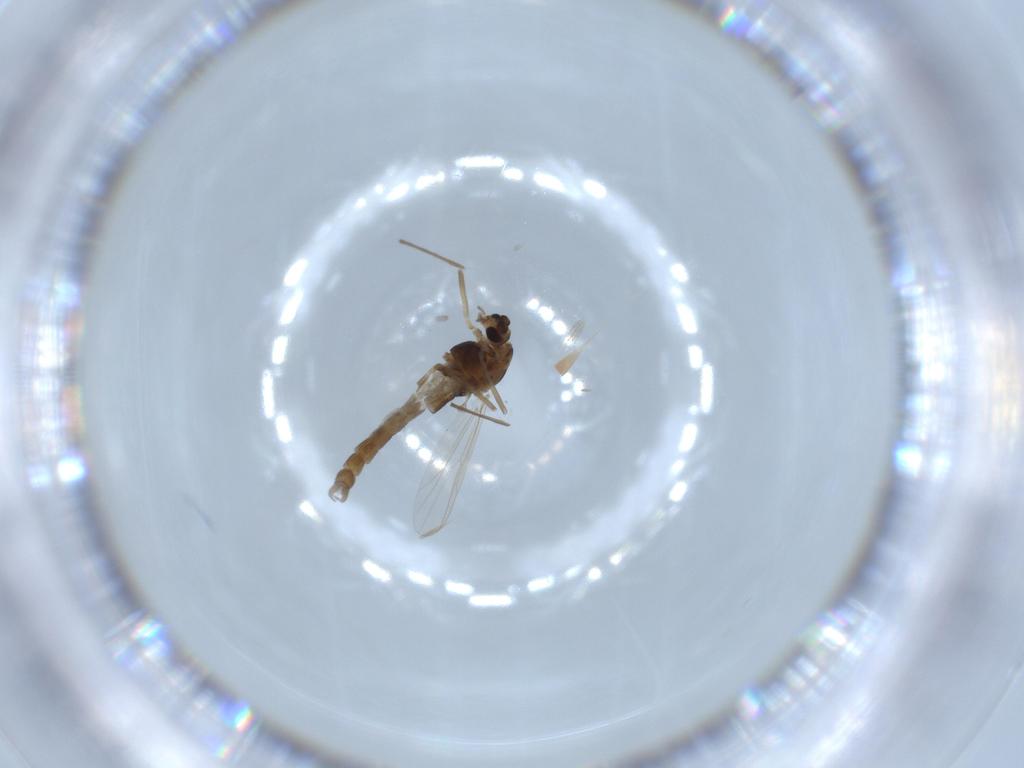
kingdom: Animalia
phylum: Arthropoda
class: Insecta
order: Diptera
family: Chironomidae
